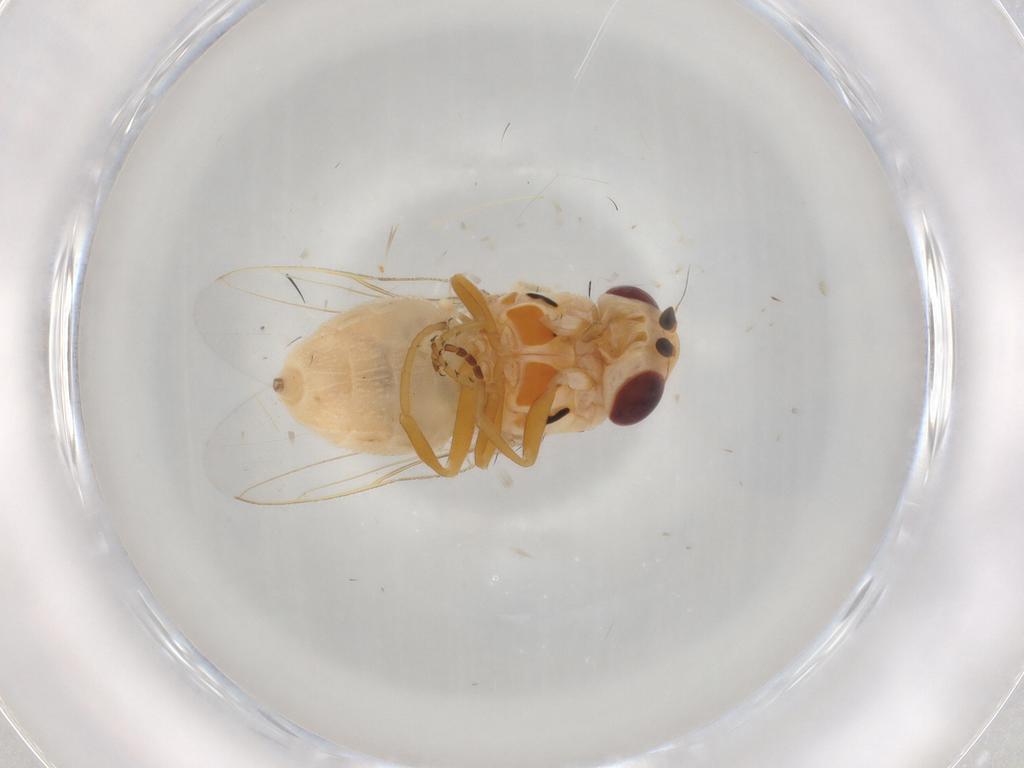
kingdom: Animalia
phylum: Arthropoda
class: Insecta
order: Diptera
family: Chloropidae
